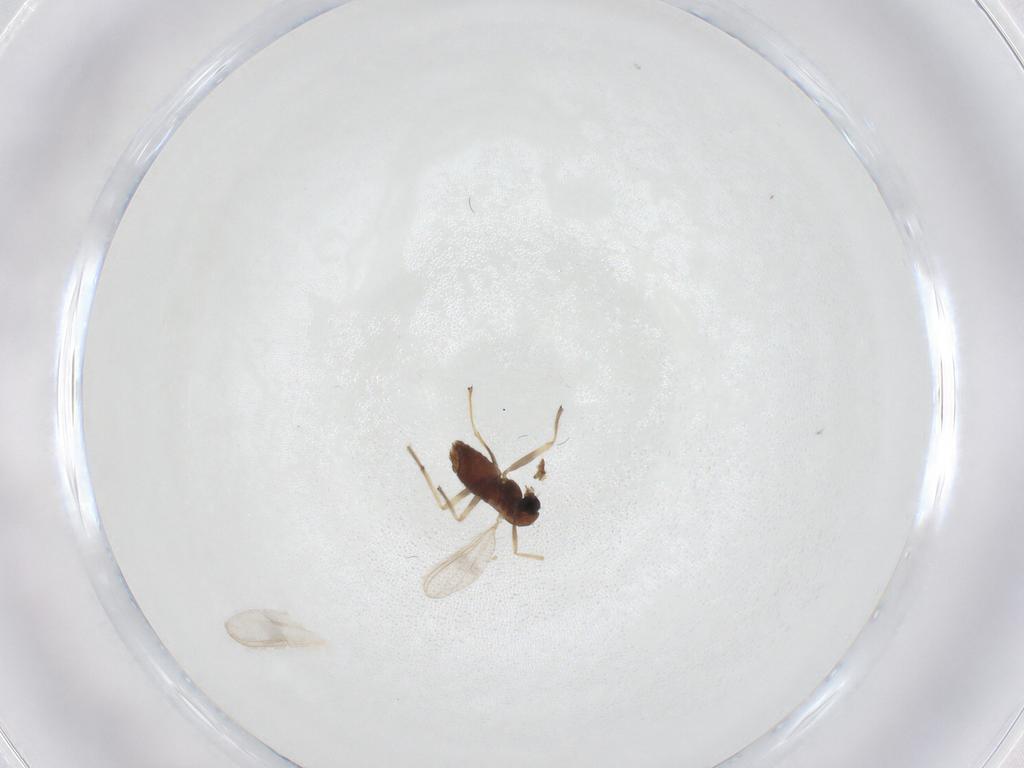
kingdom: Animalia
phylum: Arthropoda
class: Insecta
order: Diptera
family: Chironomidae
